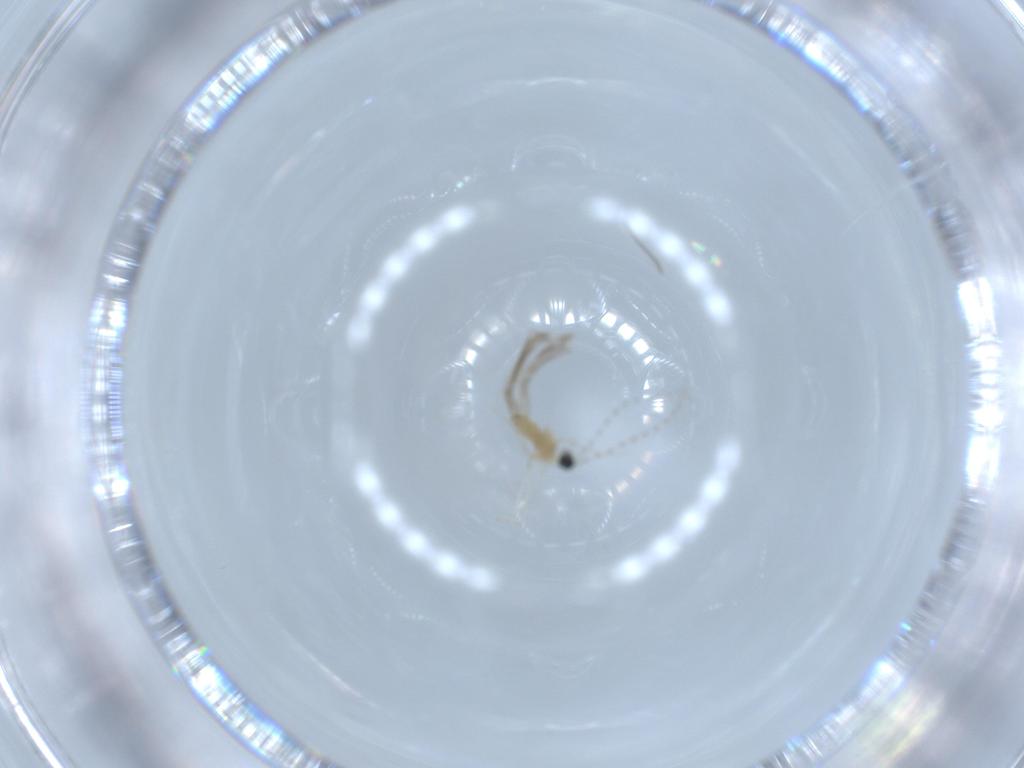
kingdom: Animalia
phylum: Arthropoda
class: Insecta
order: Diptera
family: Cecidomyiidae
